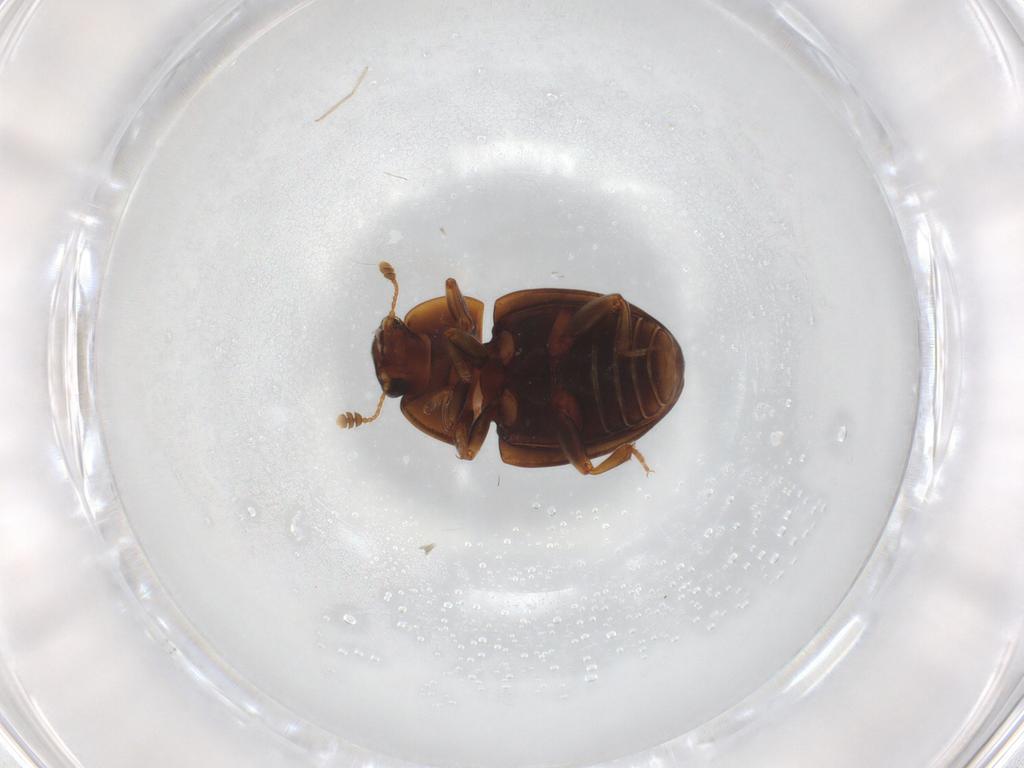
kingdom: Animalia
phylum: Arthropoda
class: Insecta
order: Coleoptera
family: Nitidulidae
